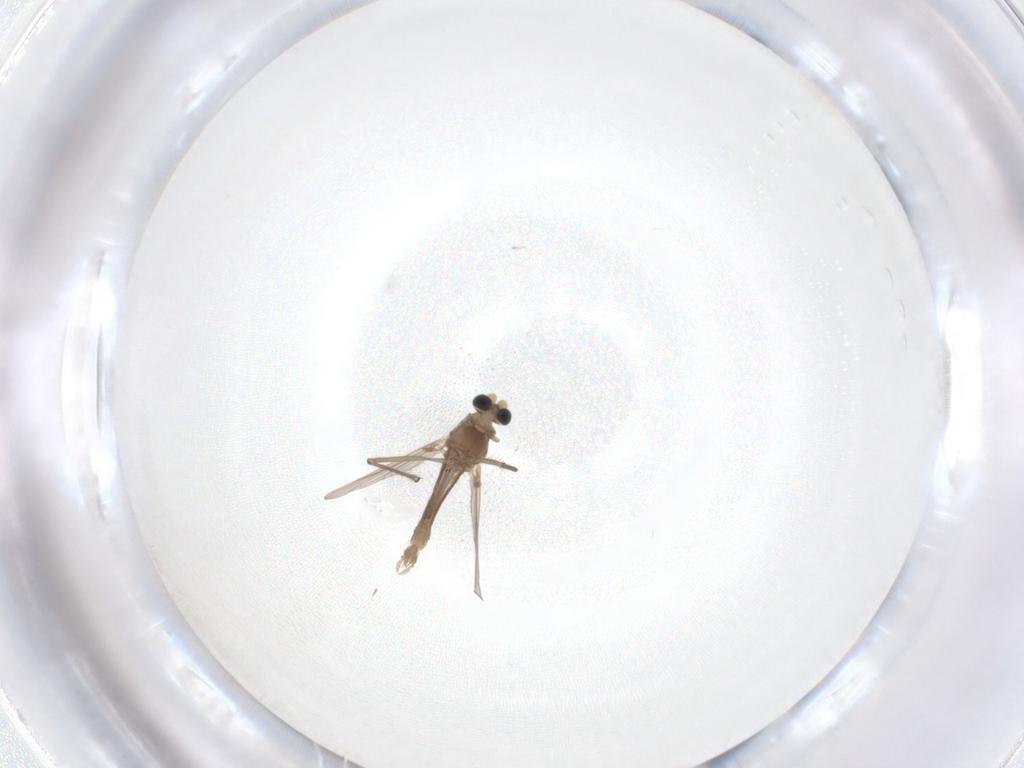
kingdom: Animalia
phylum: Arthropoda
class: Insecta
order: Diptera
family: Chironomidae
